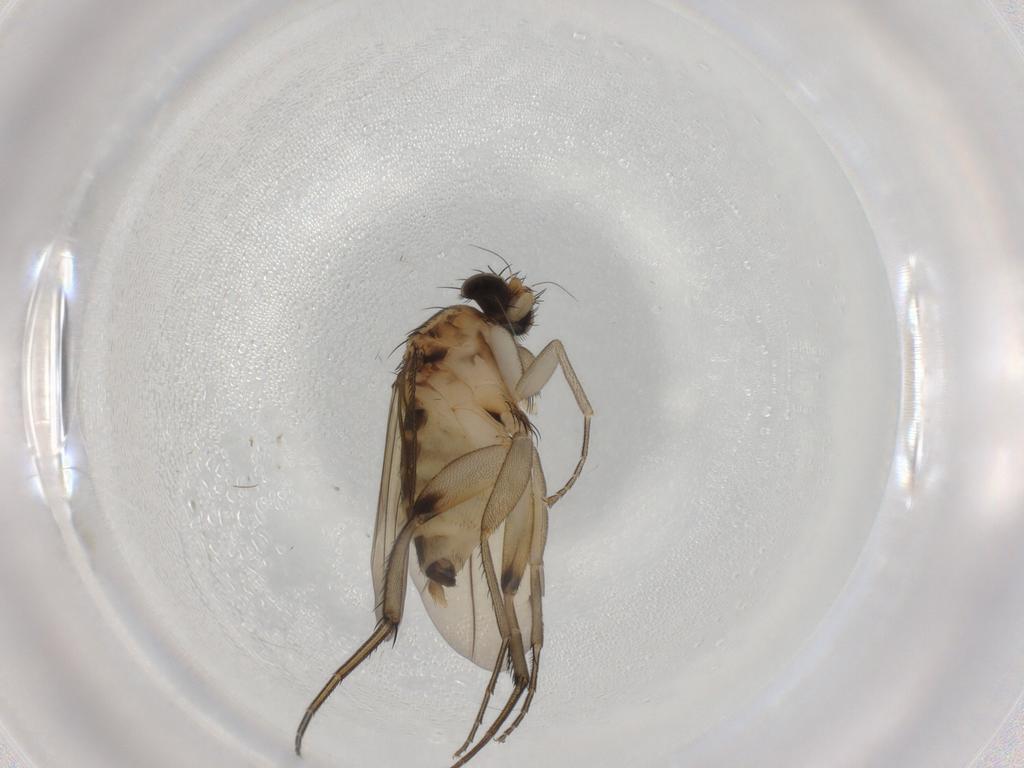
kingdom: Animalia
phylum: Arthropoda
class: Insecta
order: Diptera
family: Phoridae
